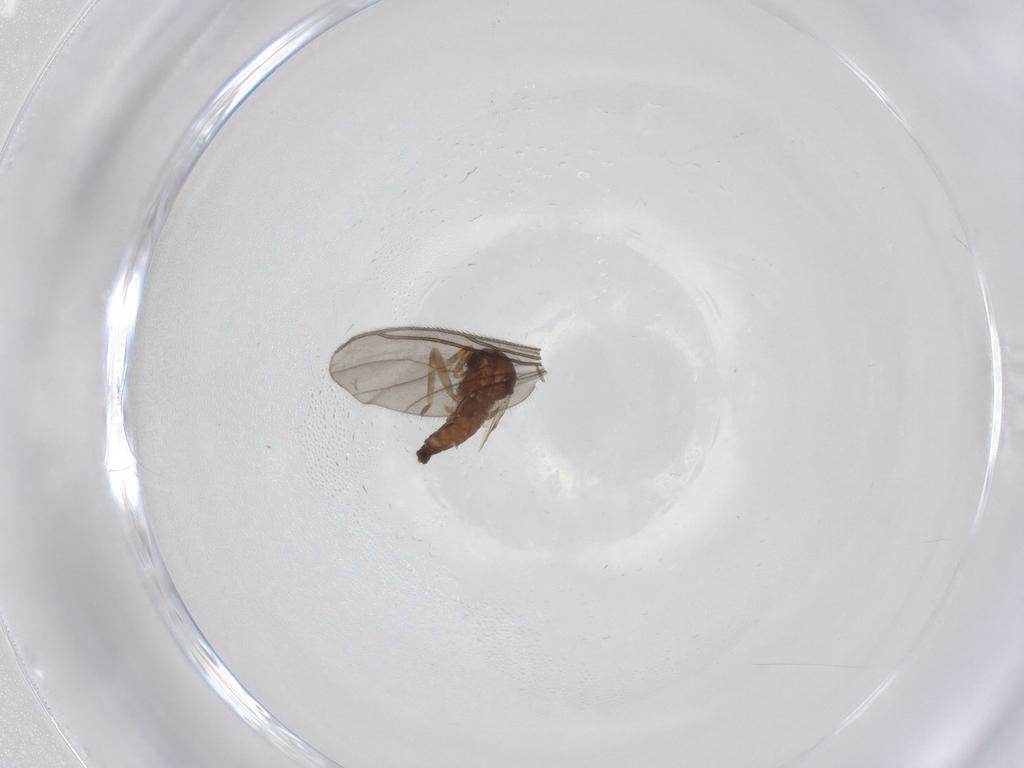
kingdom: Animalia
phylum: Arthropoda
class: Insecta
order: Diptera
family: Ceratopogonidae
